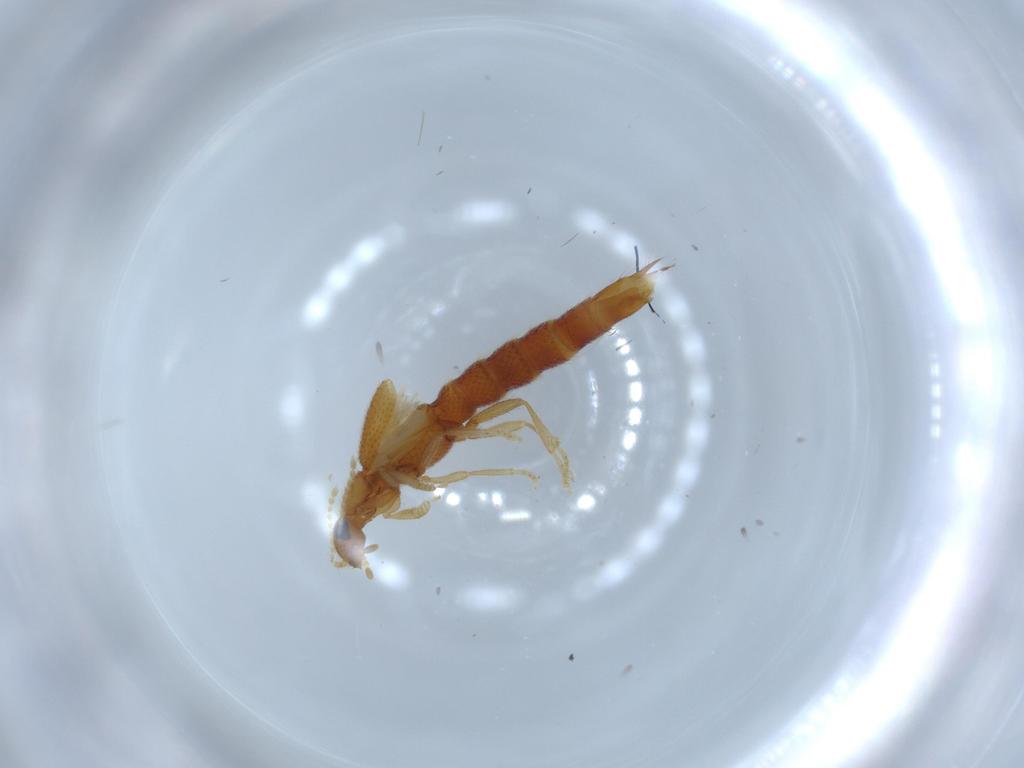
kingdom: Animalia
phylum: Arthropoda
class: Insecta
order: Coleoptera
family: Staphylinidae
